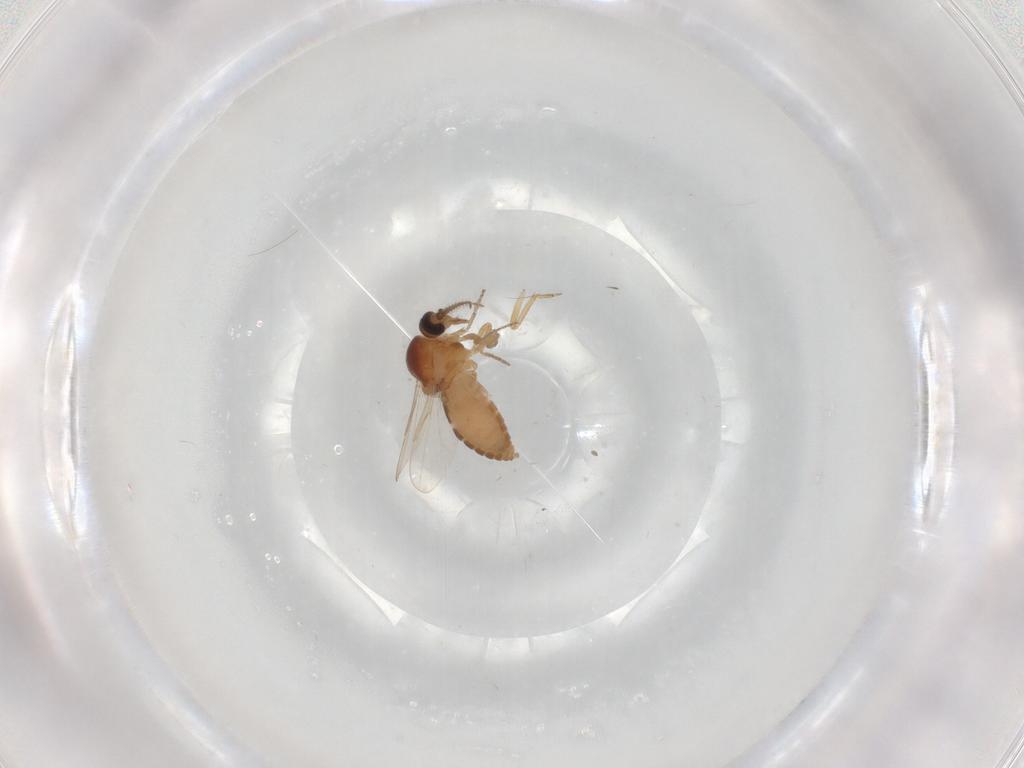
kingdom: Animalia
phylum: Arthropoda
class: Insecta
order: Diptera
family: Ceratopogonidae
